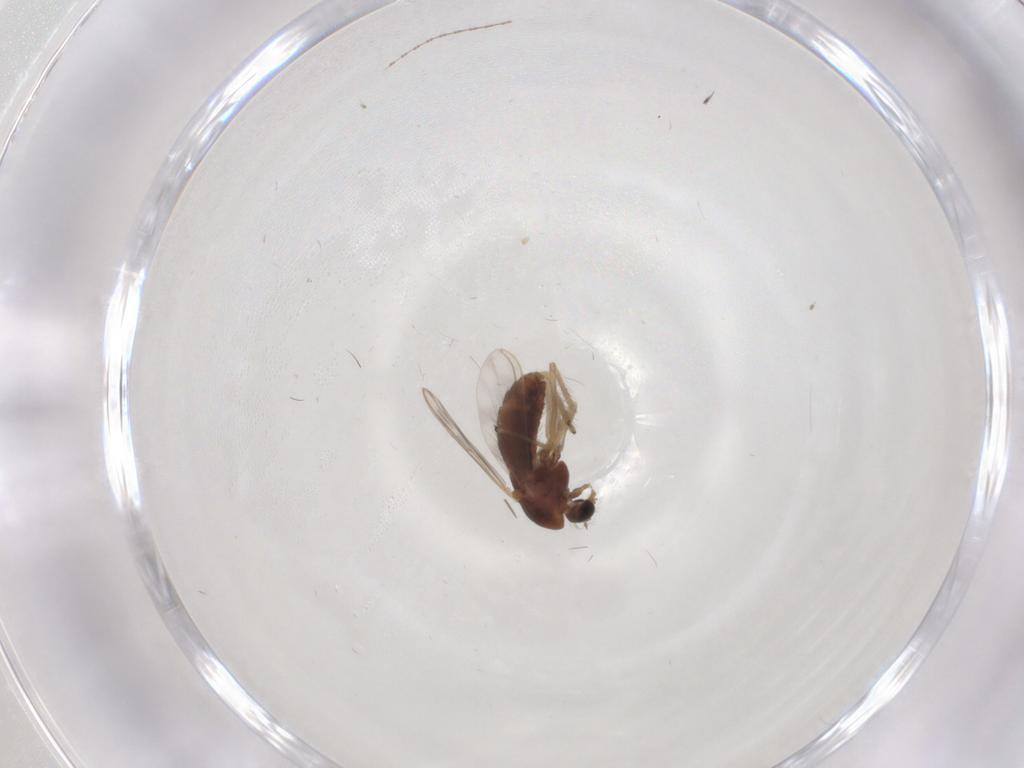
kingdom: Animalia
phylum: Arthropoda
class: Insecta
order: Diptera
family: Chironomidae
